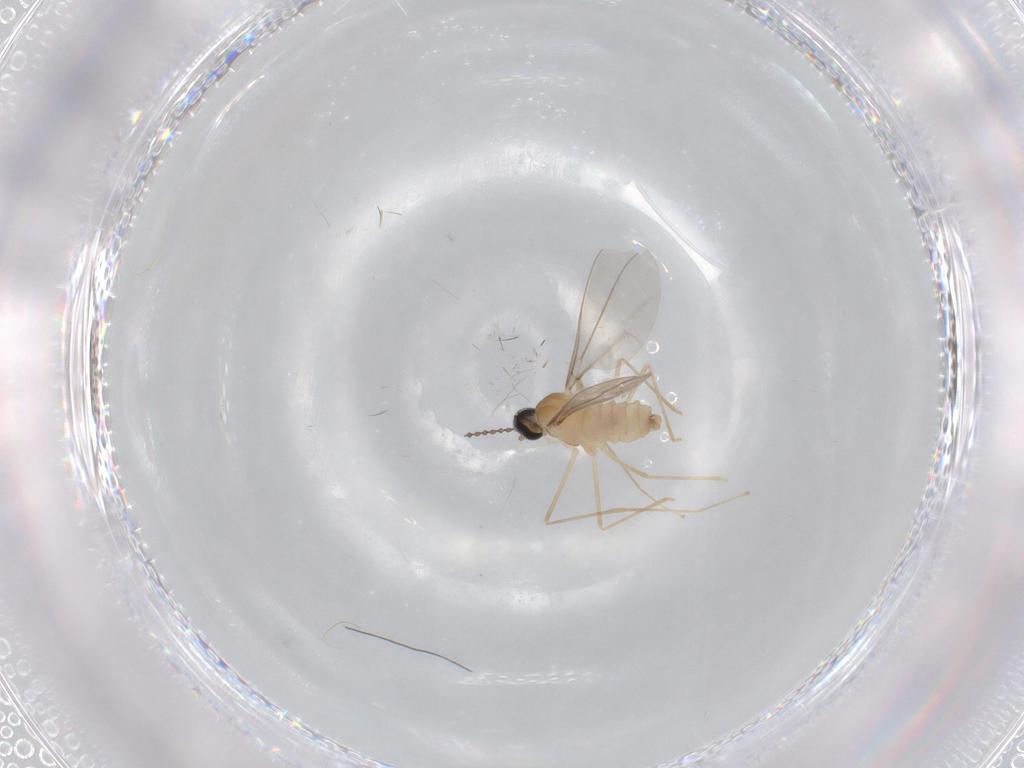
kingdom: Animalia
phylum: Arthropoda
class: Insecta
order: Diptera
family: Cecidomyiidae
